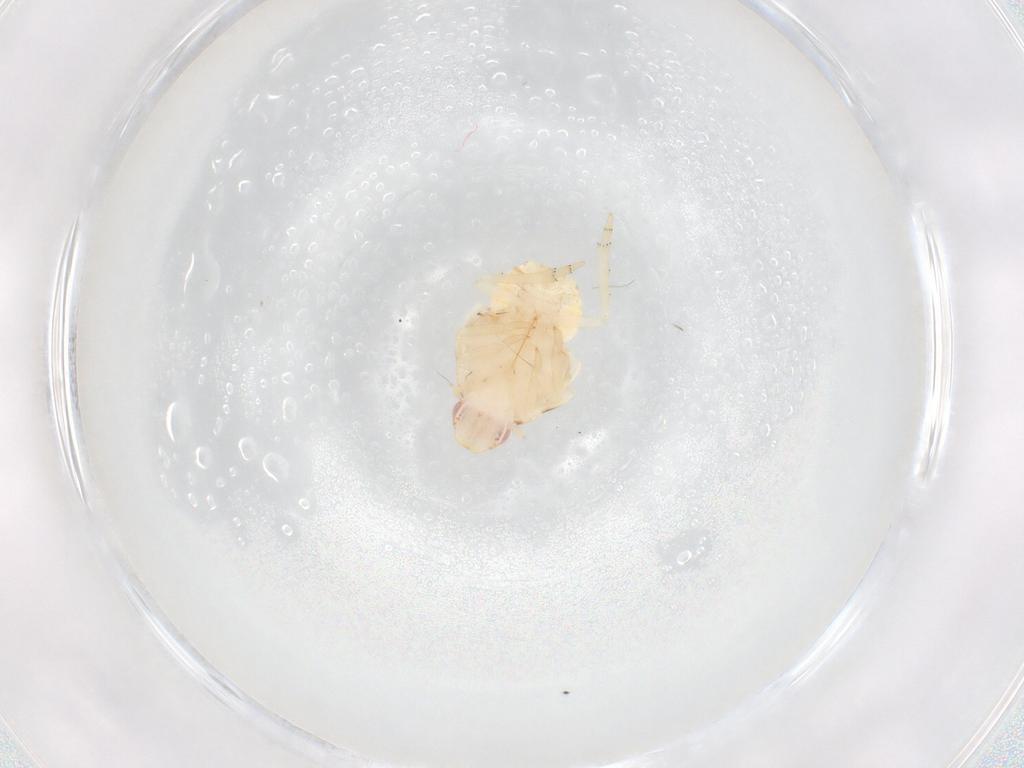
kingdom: Animalia
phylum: Arthropoda
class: Insecta
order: Hemiptera
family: Flatidae
